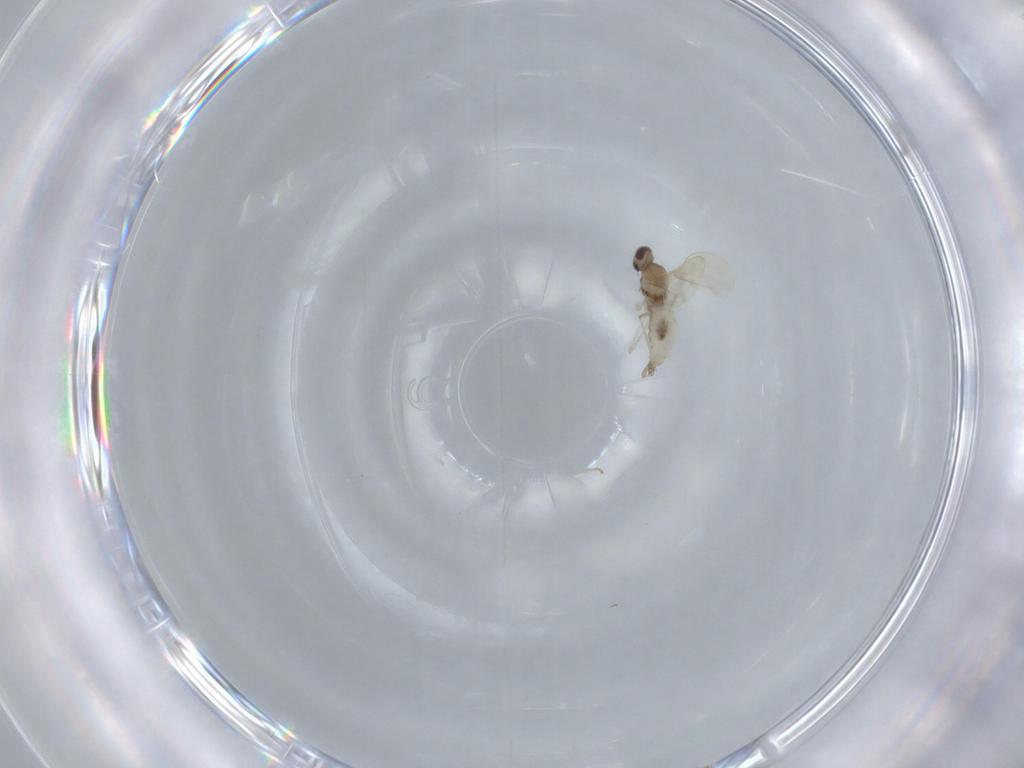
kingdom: Animalia
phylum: Arthropoda
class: Insecta
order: Diptera
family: Cecidomyiidae
